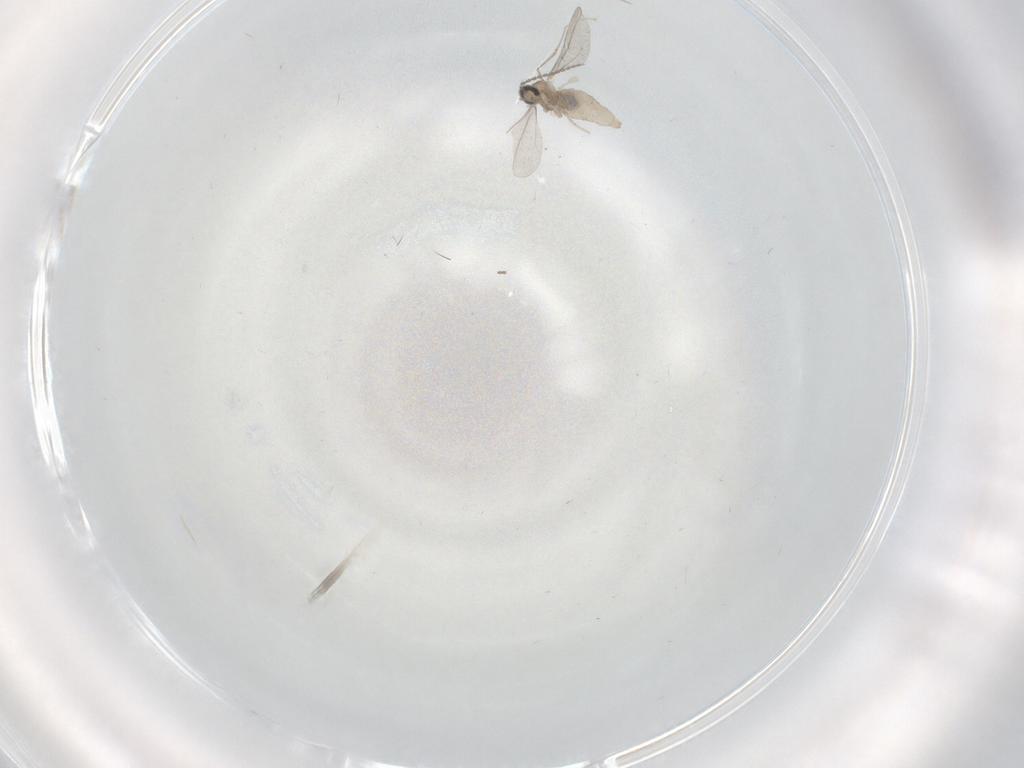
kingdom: Animalia
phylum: Arthropoda
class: Insecta
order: Diptera
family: Cecidomyiidae
